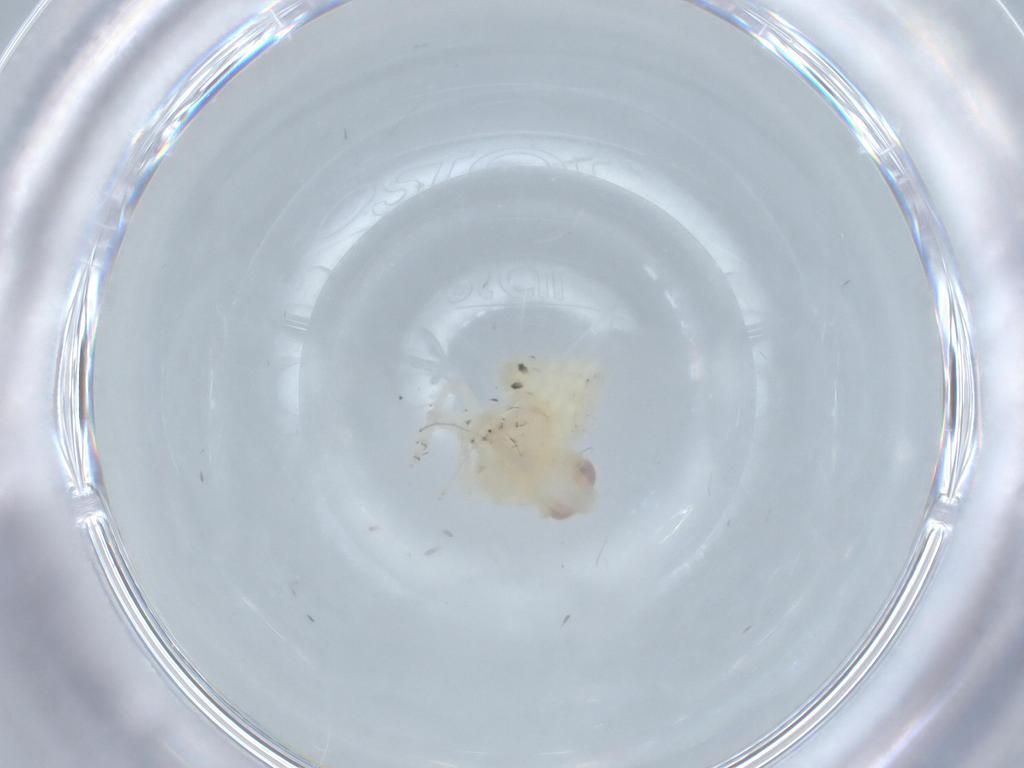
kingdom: Animalia
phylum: Arthropoda
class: Insecta
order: Hemiptera
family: Nogodinidae
